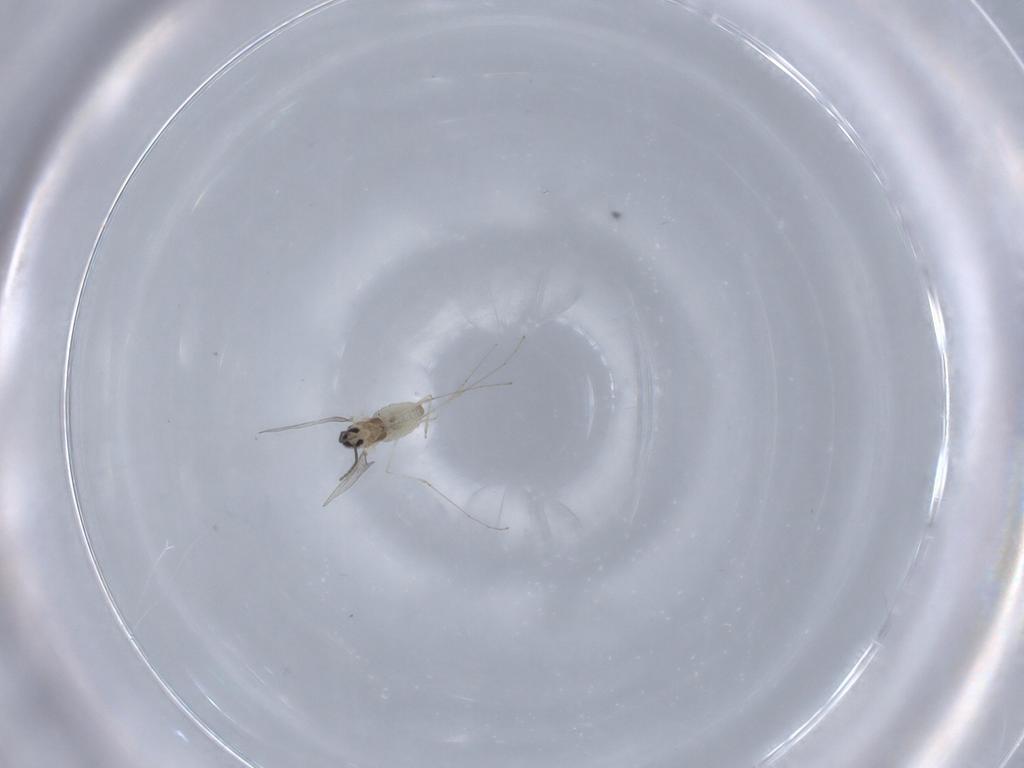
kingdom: Animalia
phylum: Arthropoda
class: Insecta
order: Diptera
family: Cecidomyiidae
